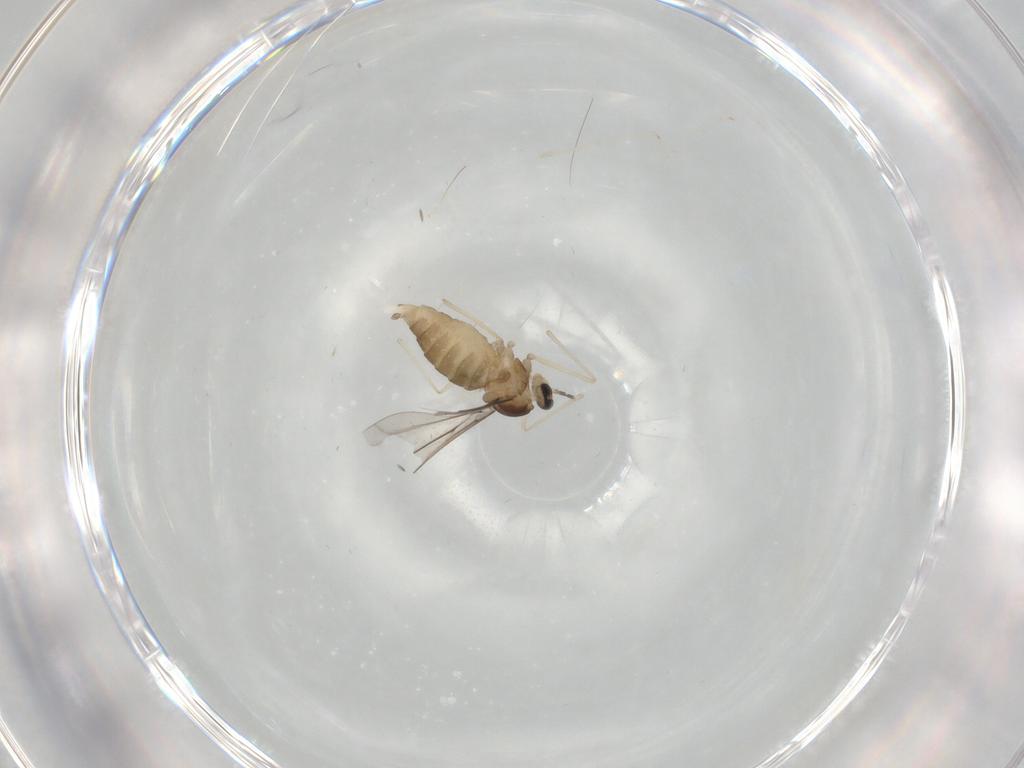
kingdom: Animalia
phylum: Arthropoda
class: Insecta
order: Diptera
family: Cecidomyiidae
